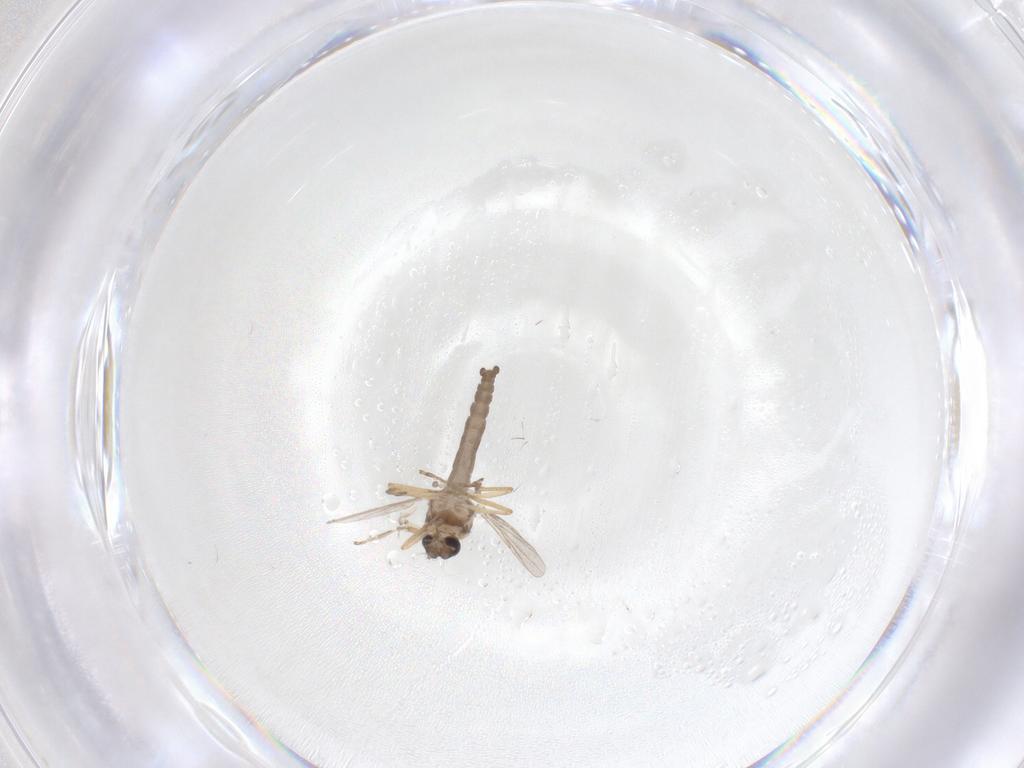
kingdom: Animalia
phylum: Arthropoda
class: Insecta
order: Diptera
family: Ceratopogonidae
